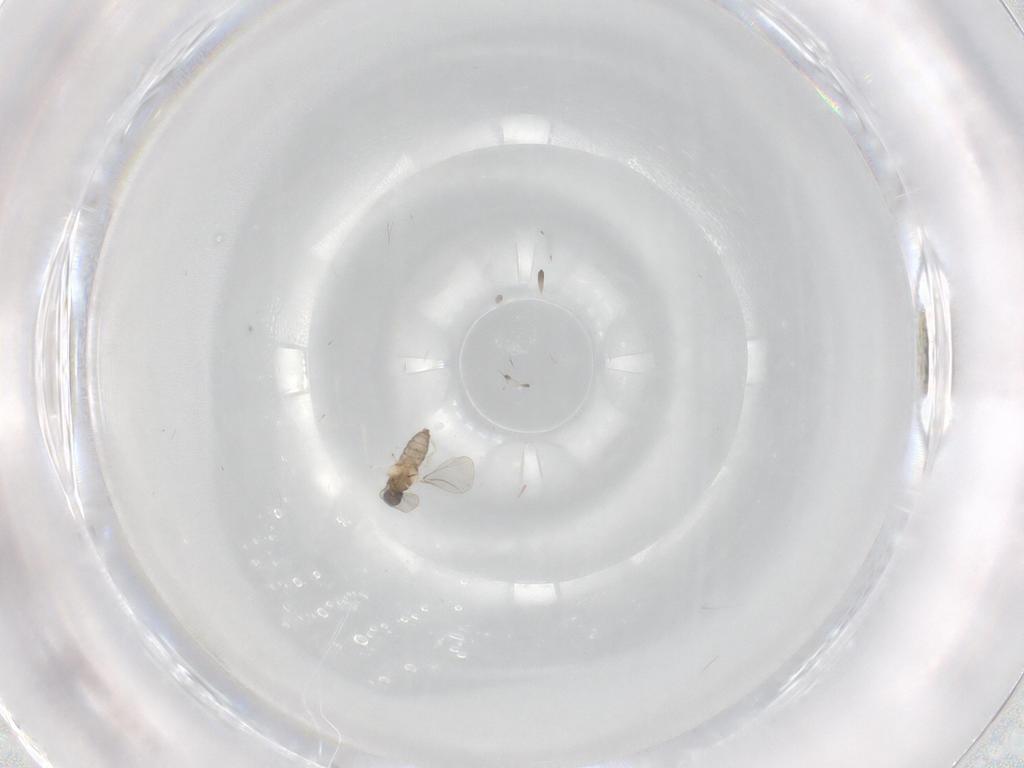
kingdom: Animalia
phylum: Arthropoda
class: Insecta
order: Diptera
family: Cecidomyiidae
